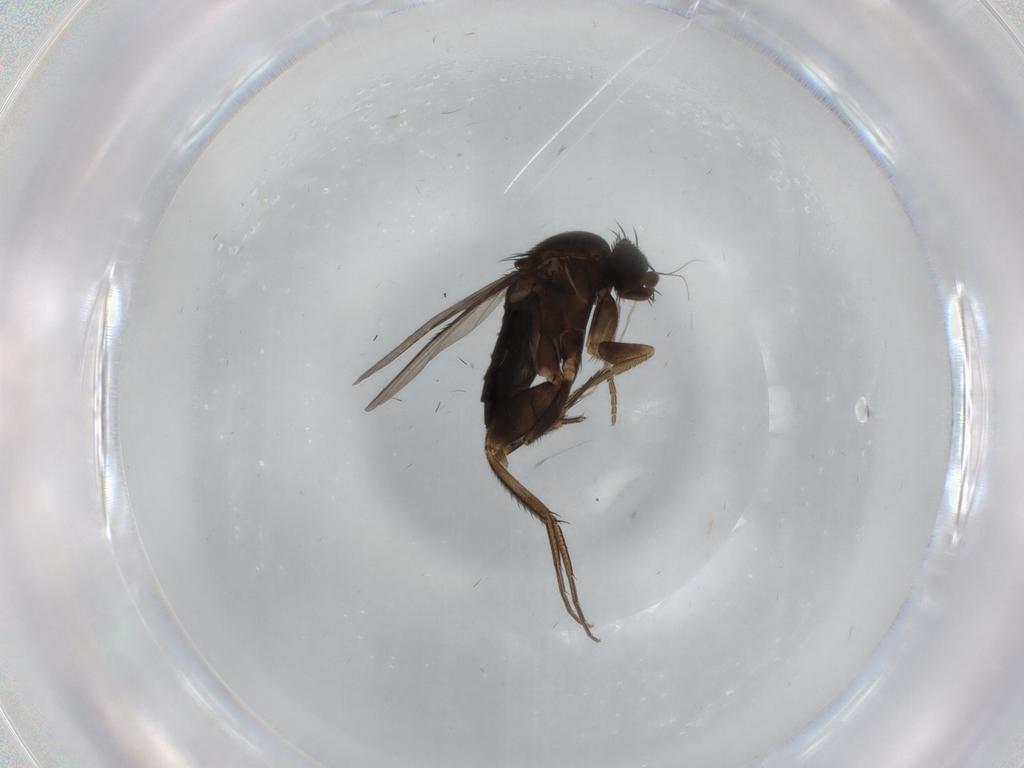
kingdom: Animalia
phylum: Arthropoda
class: Insecta
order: Diptera
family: Phoridae
